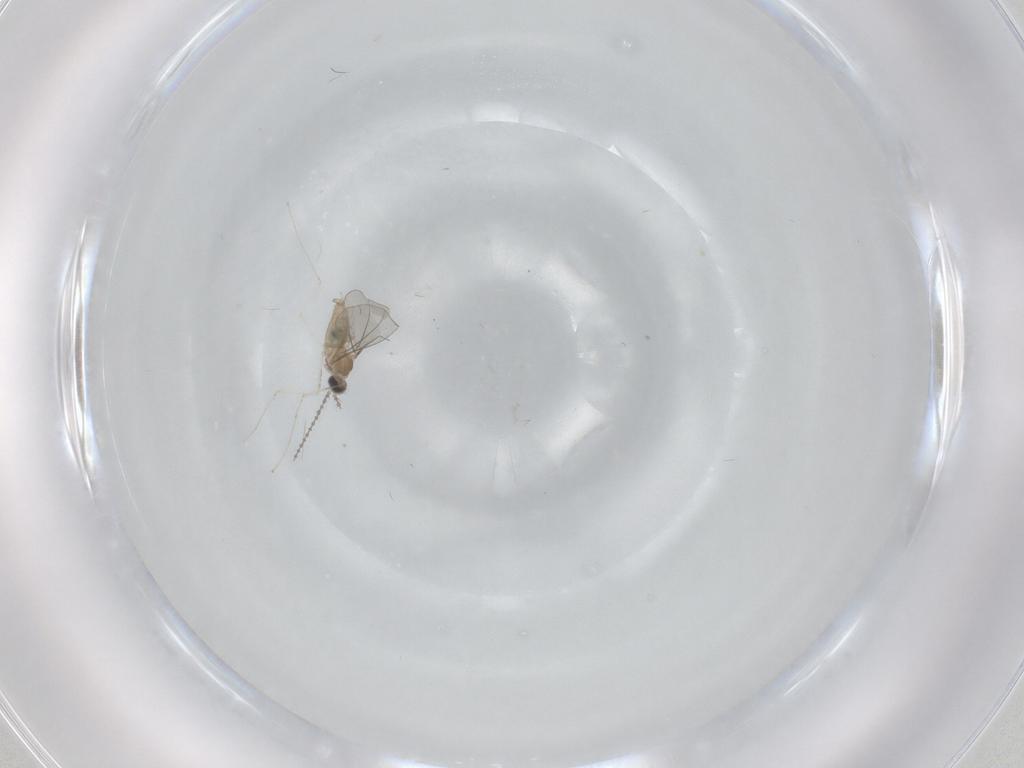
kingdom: Animalia
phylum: Arthropoda
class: Insecta
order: Diptera
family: Cecidomyiidae
